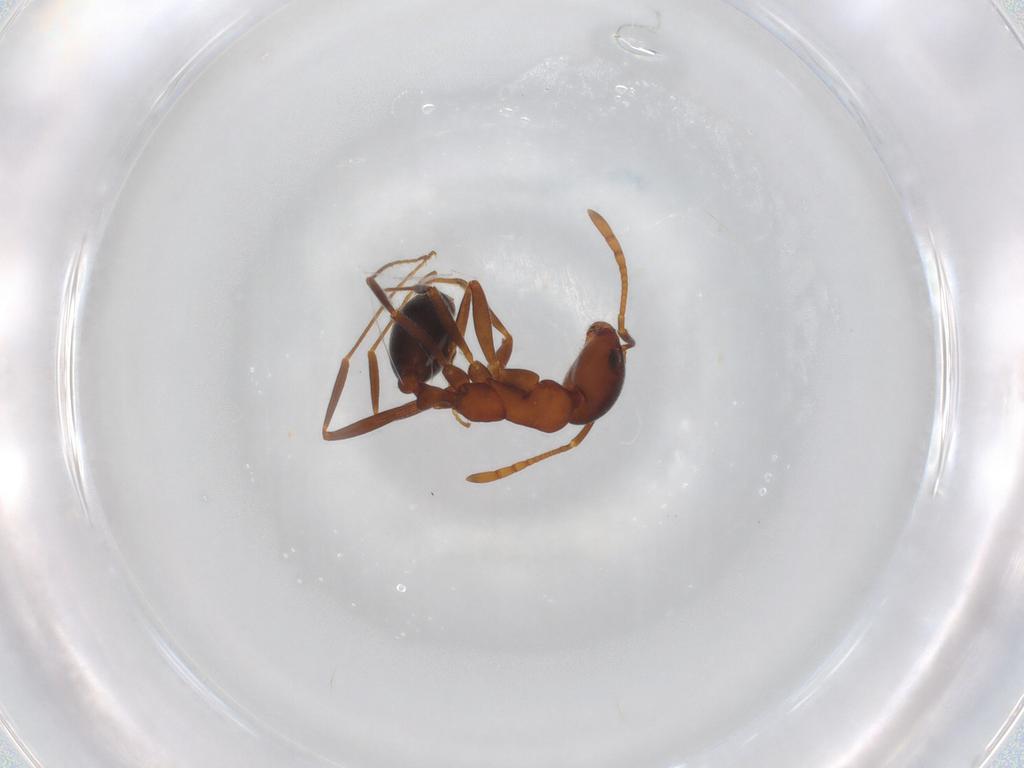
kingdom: Animalia
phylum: Arthropoda
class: Insecta
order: Hymenoptera
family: Formicidae
